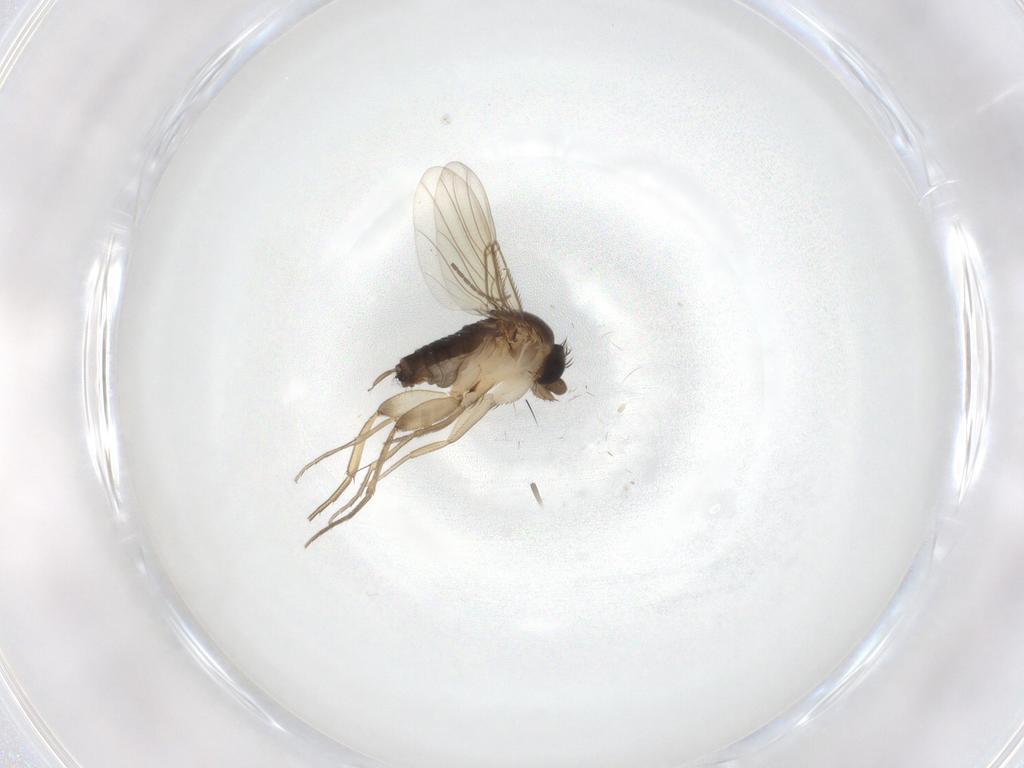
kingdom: Animalia
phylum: Arthropoda
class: Insecta
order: Diptera
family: Phoridae
